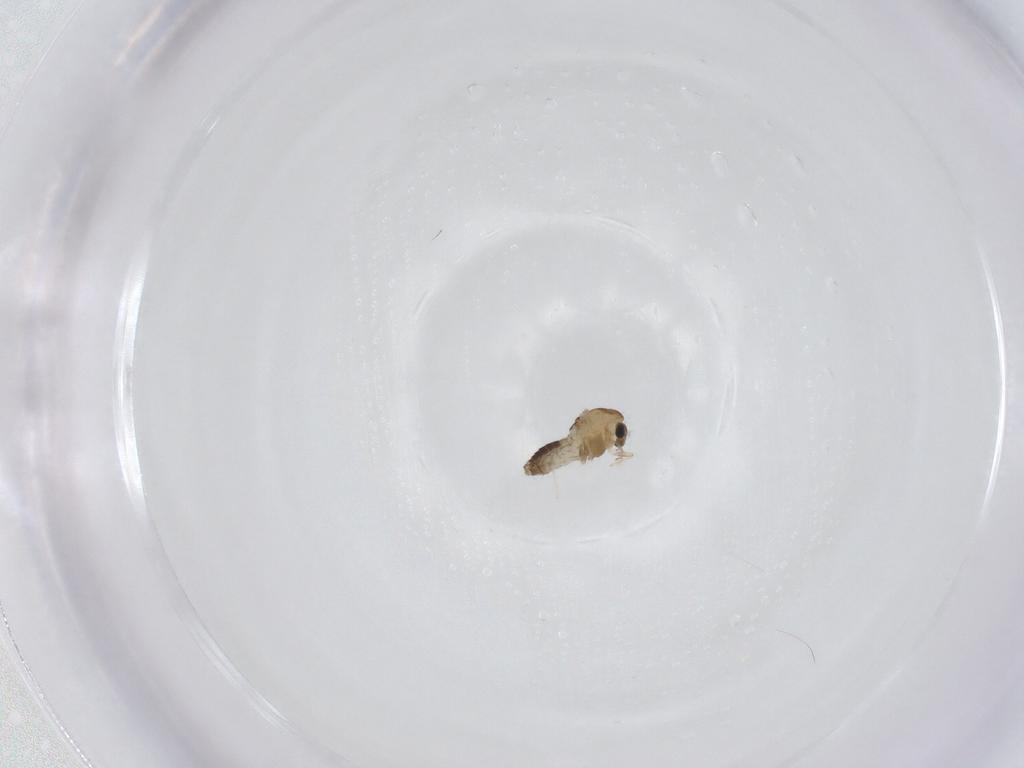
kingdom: Animalia
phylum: Arthropoda
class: Insecta
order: Diptera
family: Chironomidae
